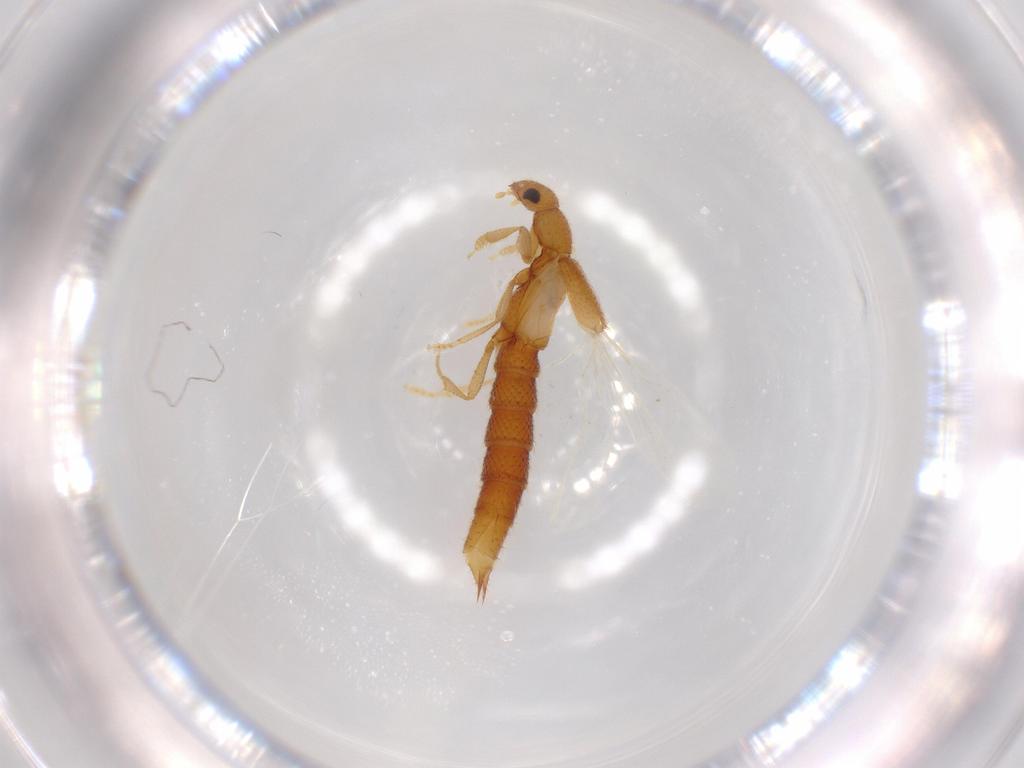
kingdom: Animalia
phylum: Arthropoda
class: Insecta
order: Coleoptera
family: Staphylinidae
